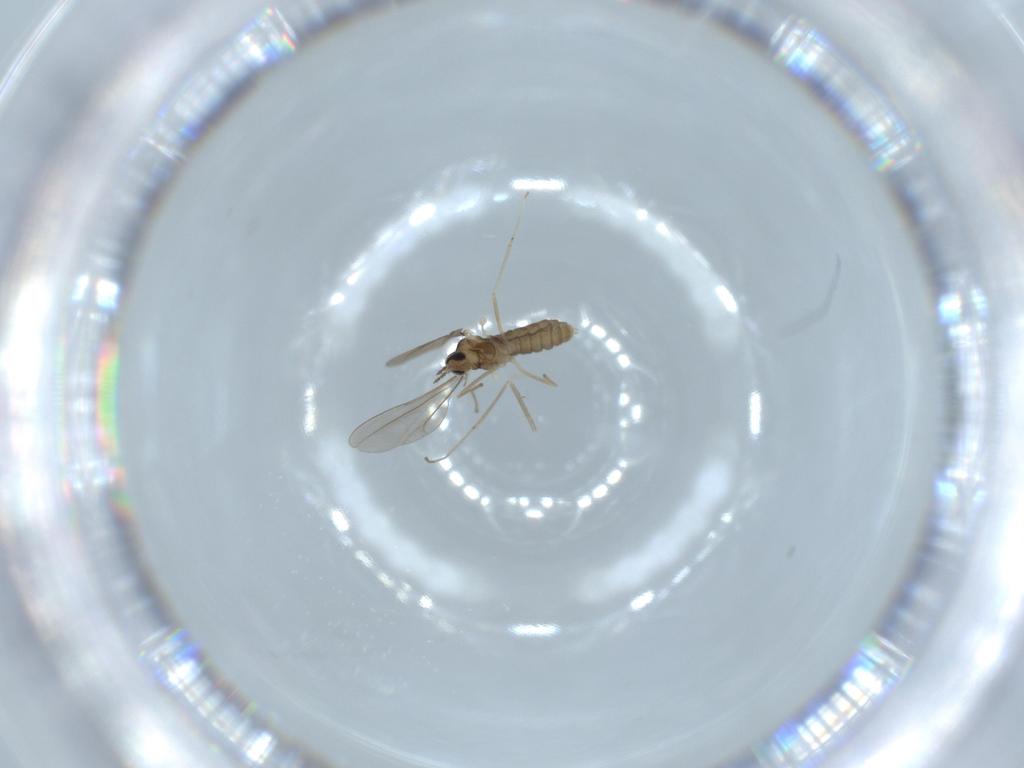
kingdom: Animalia
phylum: Arthropoda
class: Insecta
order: Diptera
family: Cecidomyiidae
